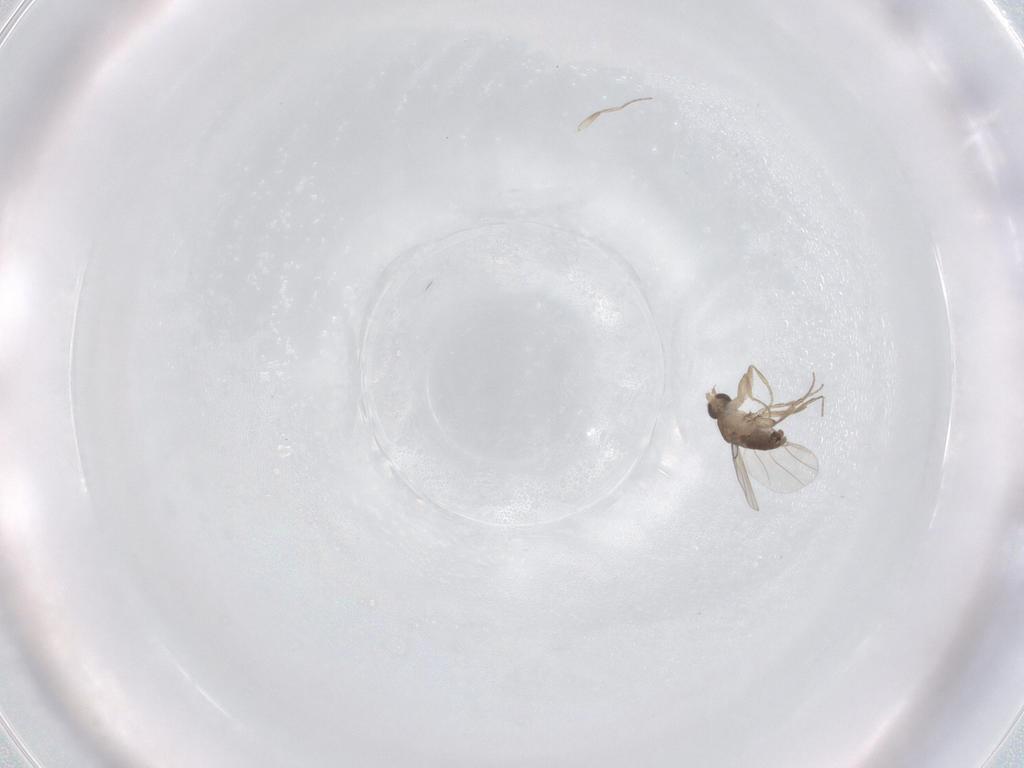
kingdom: Animalia
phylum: Arthropoda
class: Insecta
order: Diptera
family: Phoridae
